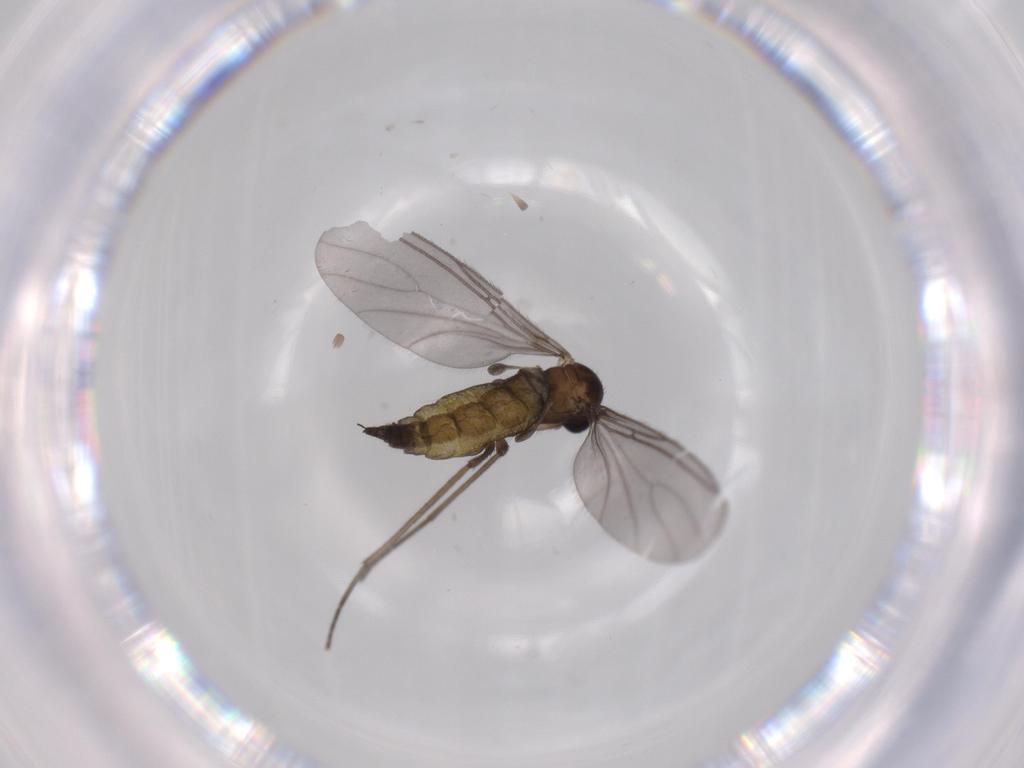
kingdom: Animalia
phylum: Arthropoda
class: Insecta
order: Diptera
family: Sciaridae
